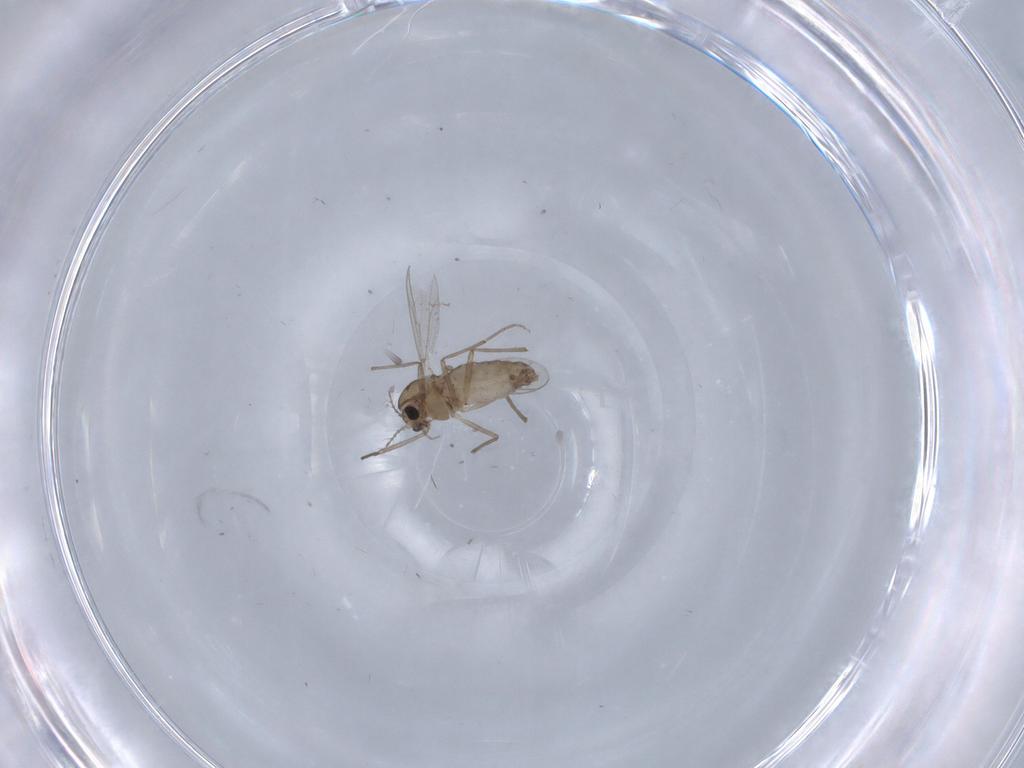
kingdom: Animalia
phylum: Arthropoda
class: Insecta
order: Diptera
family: Chironomidae
